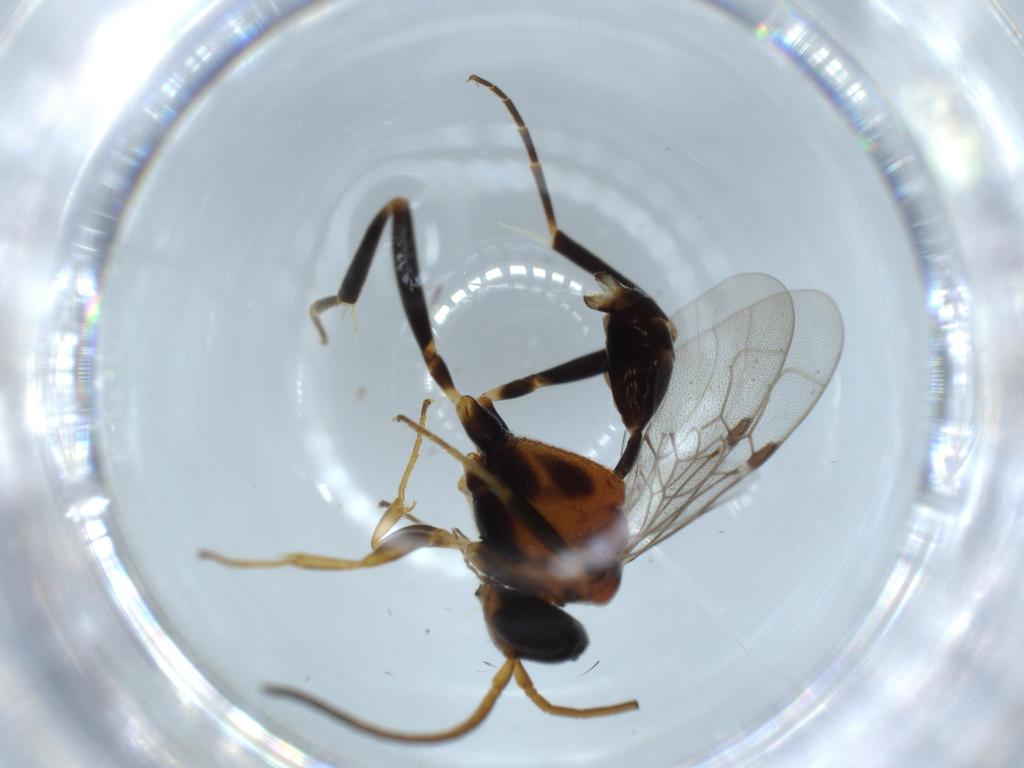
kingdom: Animalia
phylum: Arthropoda
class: Insecta
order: Hymenoptera
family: Evaniidae
